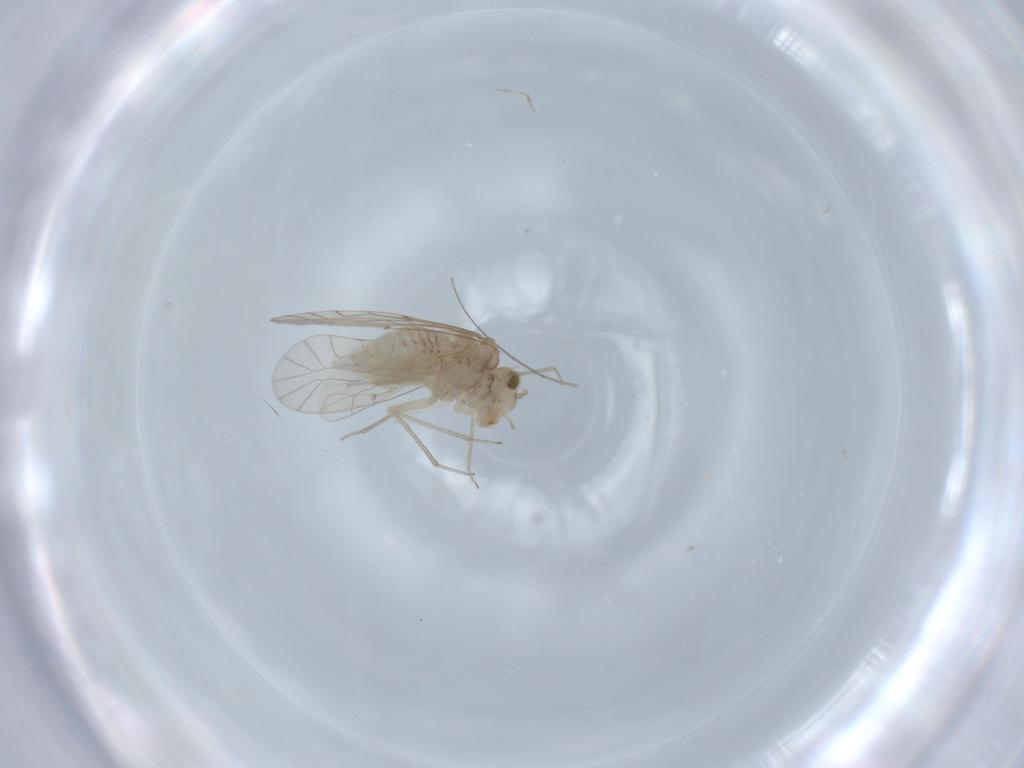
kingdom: Animalia
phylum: Arthropoda
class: Insecta
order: Psocodea
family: Lachesillidae
